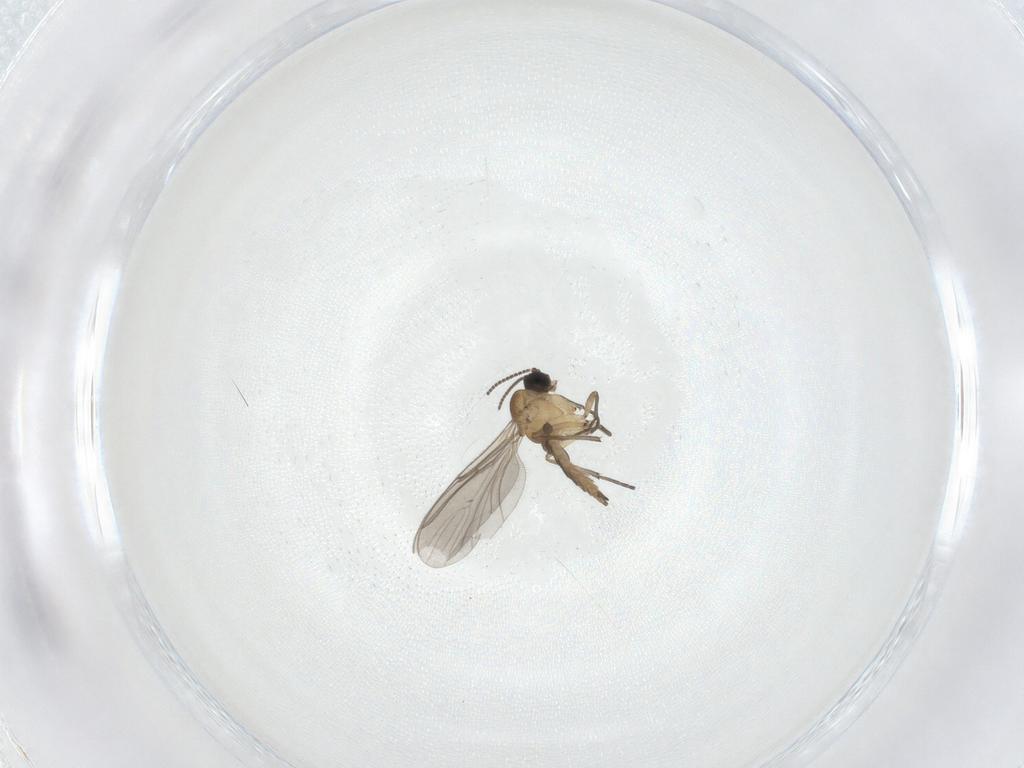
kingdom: Animalia
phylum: Arthropoda
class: Insecta
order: Diptera
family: Sciaridae
